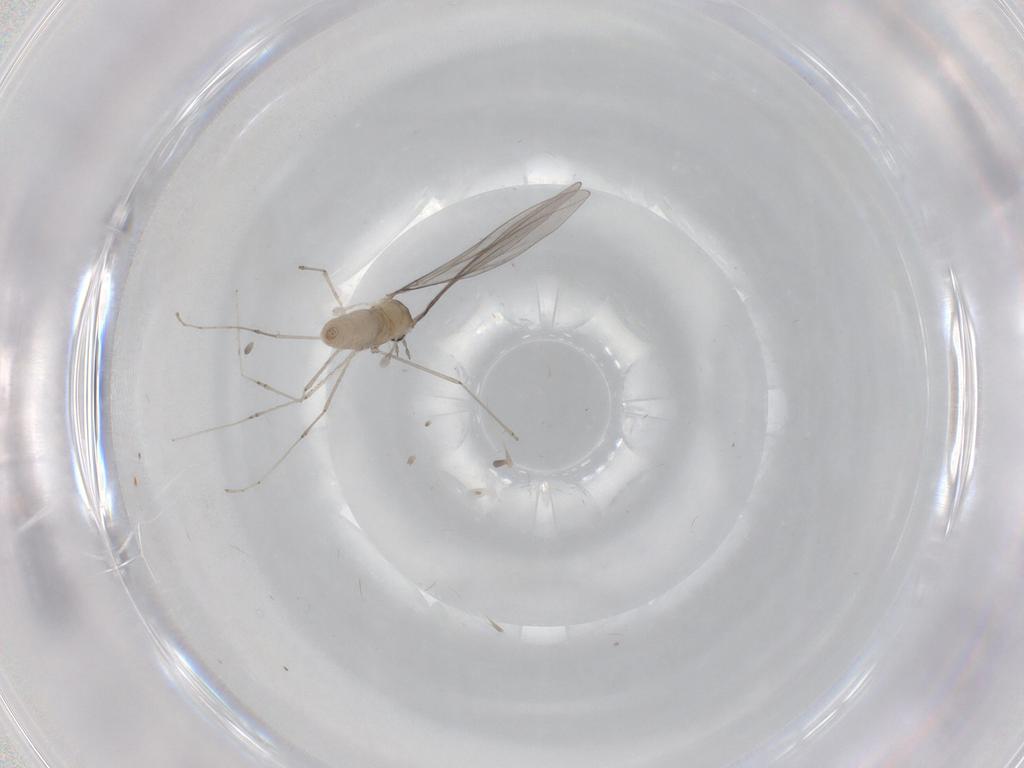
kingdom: Animalia
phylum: Arthropoda
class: Insecta
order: Diptera
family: Cecidomyiidae
